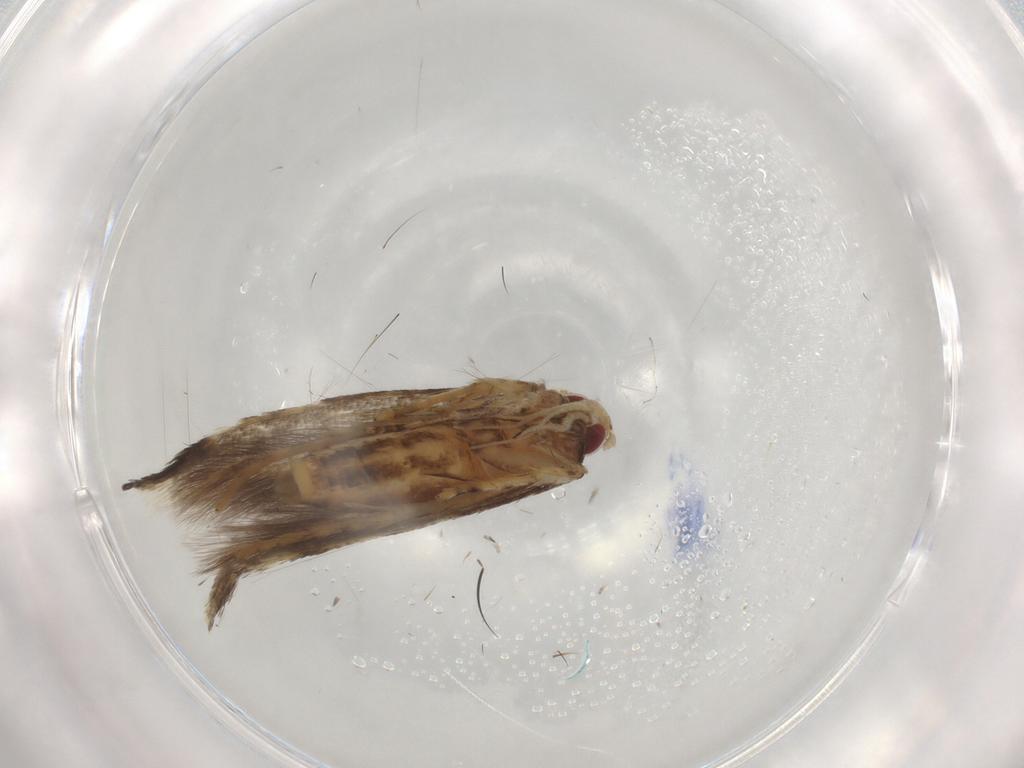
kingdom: Animalia
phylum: Arthropoda
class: Insecta
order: Lepidoptera
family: Cosmopterigidae
